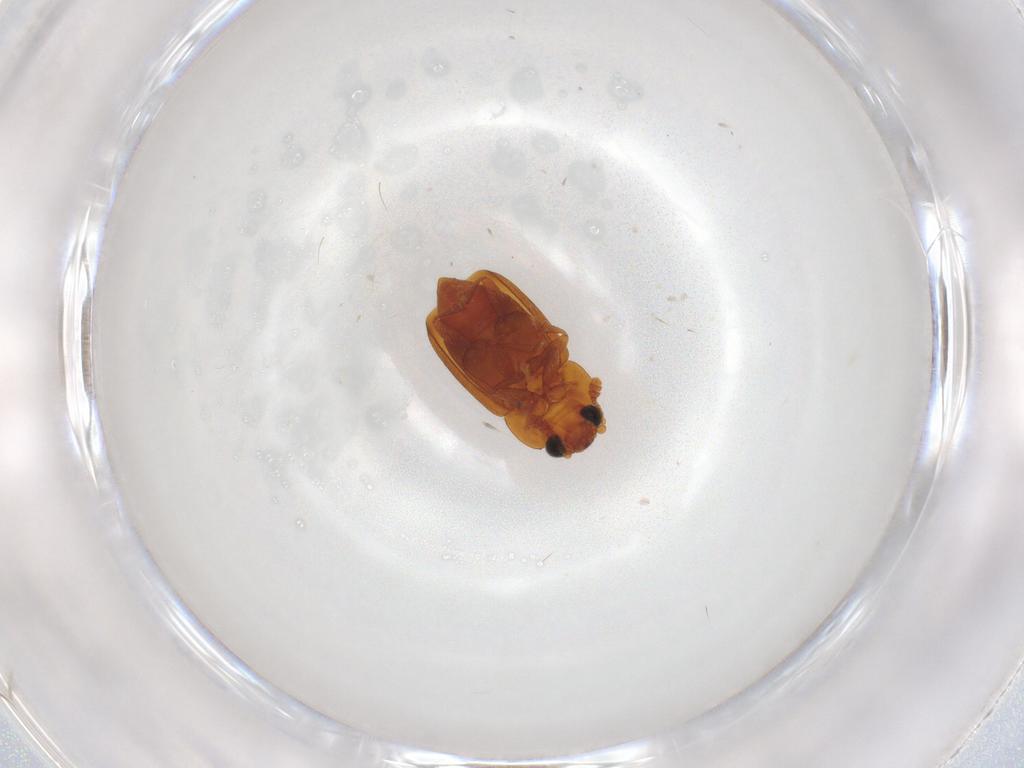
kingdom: Animalia
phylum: Arthropoda
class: Insecta
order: Coleoptera
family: Nitidulidae
